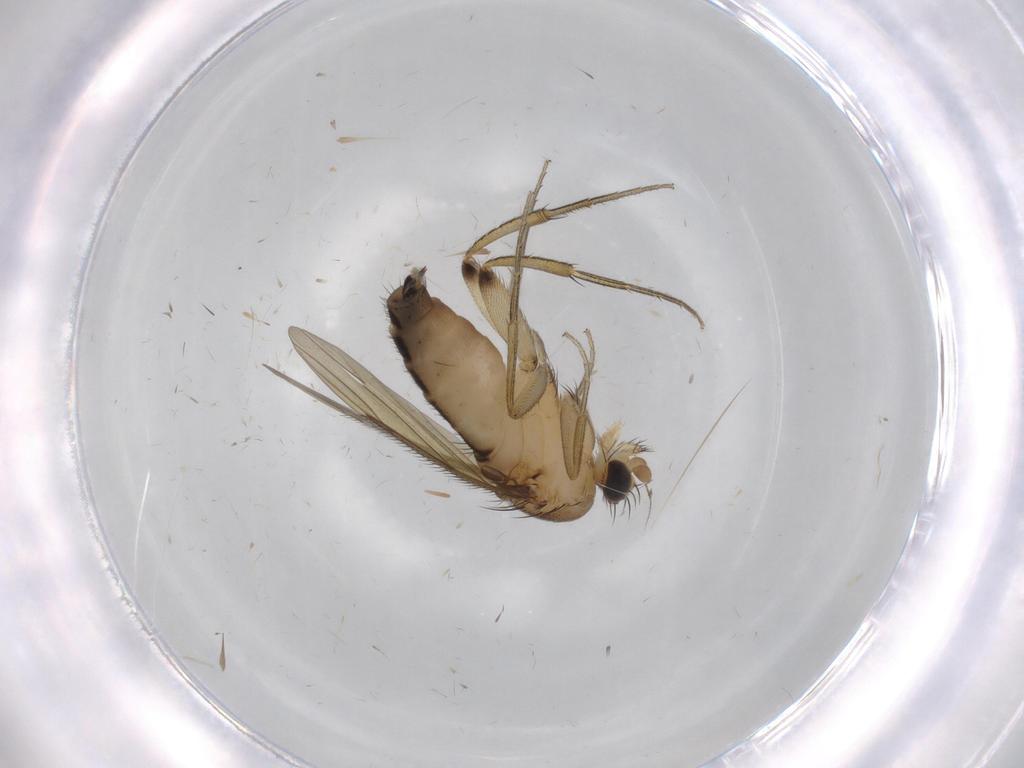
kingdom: Animalia
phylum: Arthropoda
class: Insecta
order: Diptera
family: Phoridae
